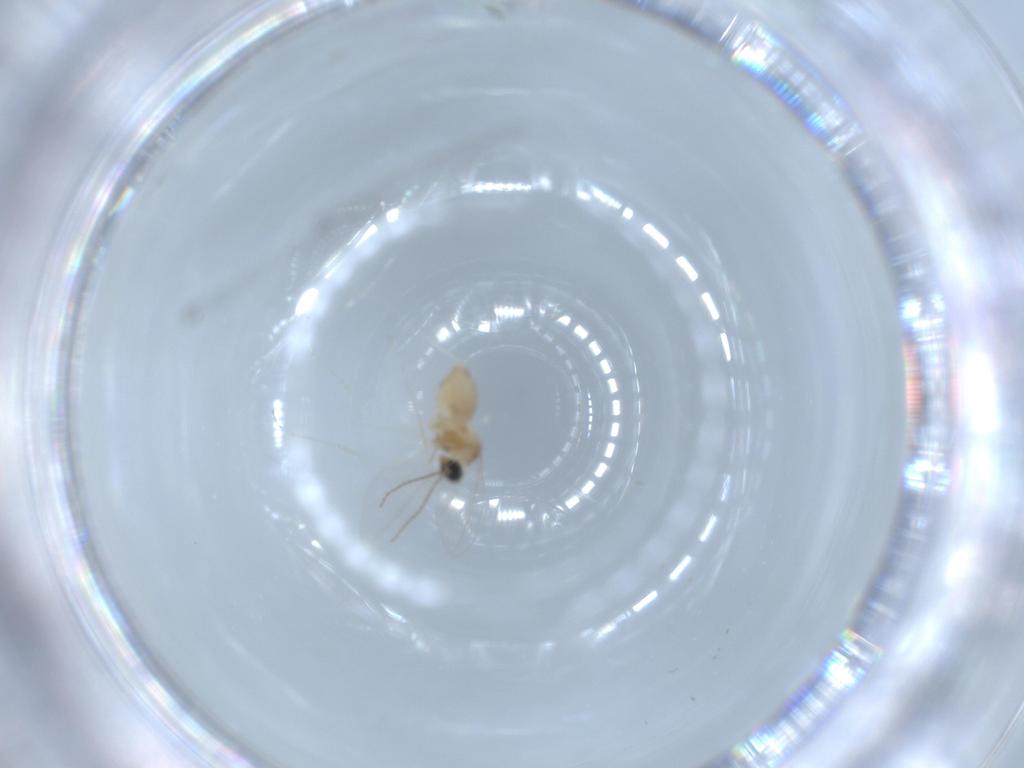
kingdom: Animalia
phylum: Arthropoda
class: Insecta
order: Diptera
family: Cecidomyiidae
